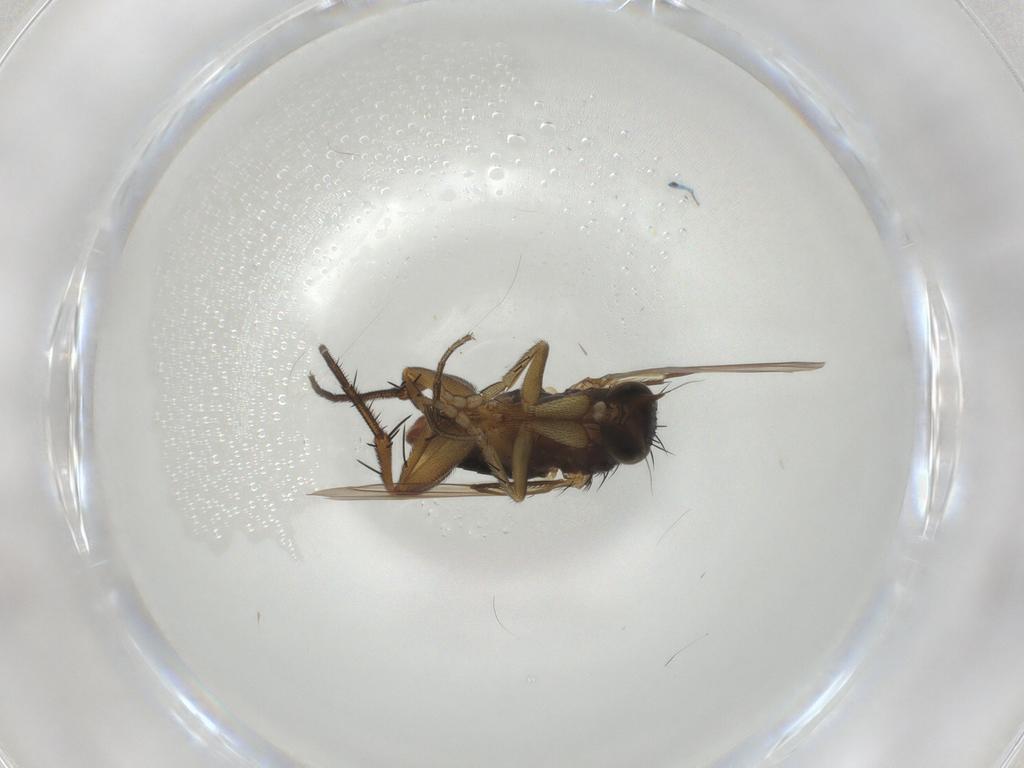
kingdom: Animalia
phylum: Arthropoda
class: Insecta
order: Diptera
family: Phoridae
